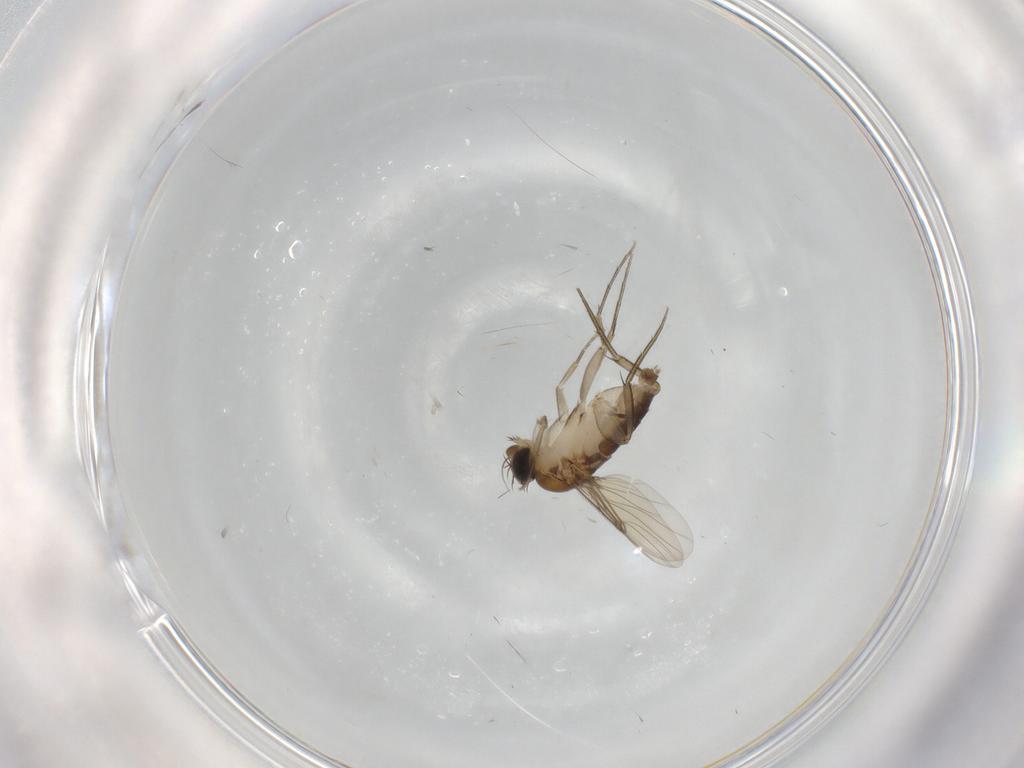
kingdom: Animalia
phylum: Arthropoda
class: Insecta
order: Diptera
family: Phoridae
